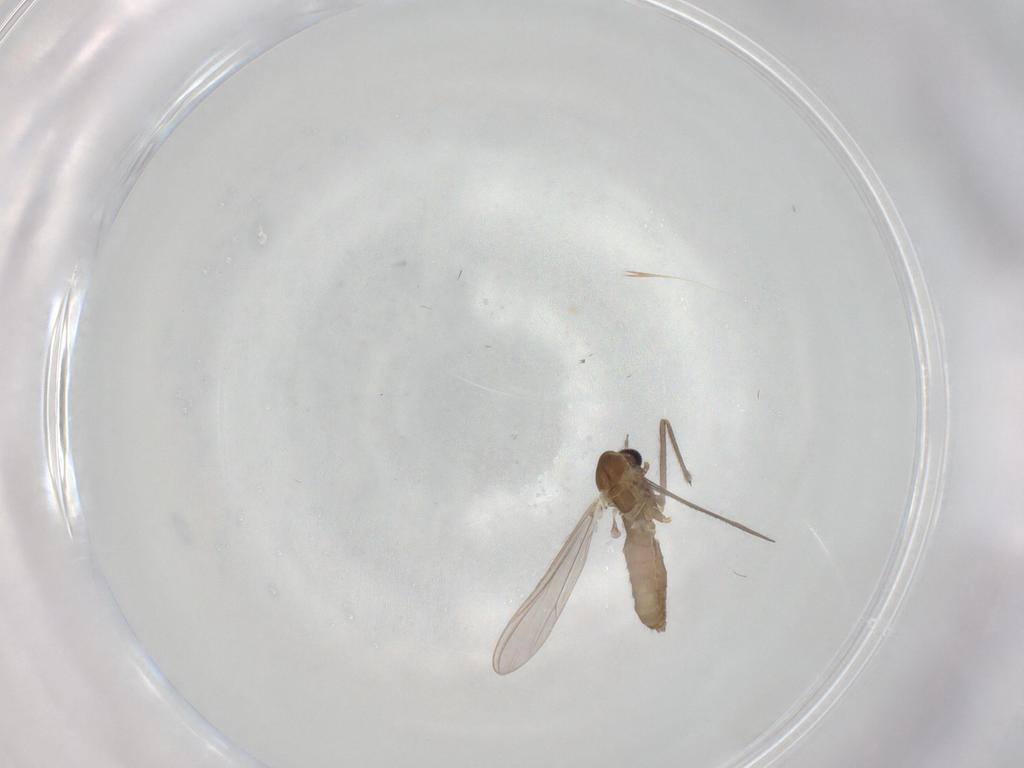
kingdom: Animalia
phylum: Arthropoda
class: Insecta
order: Diptera
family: Chironomidae
